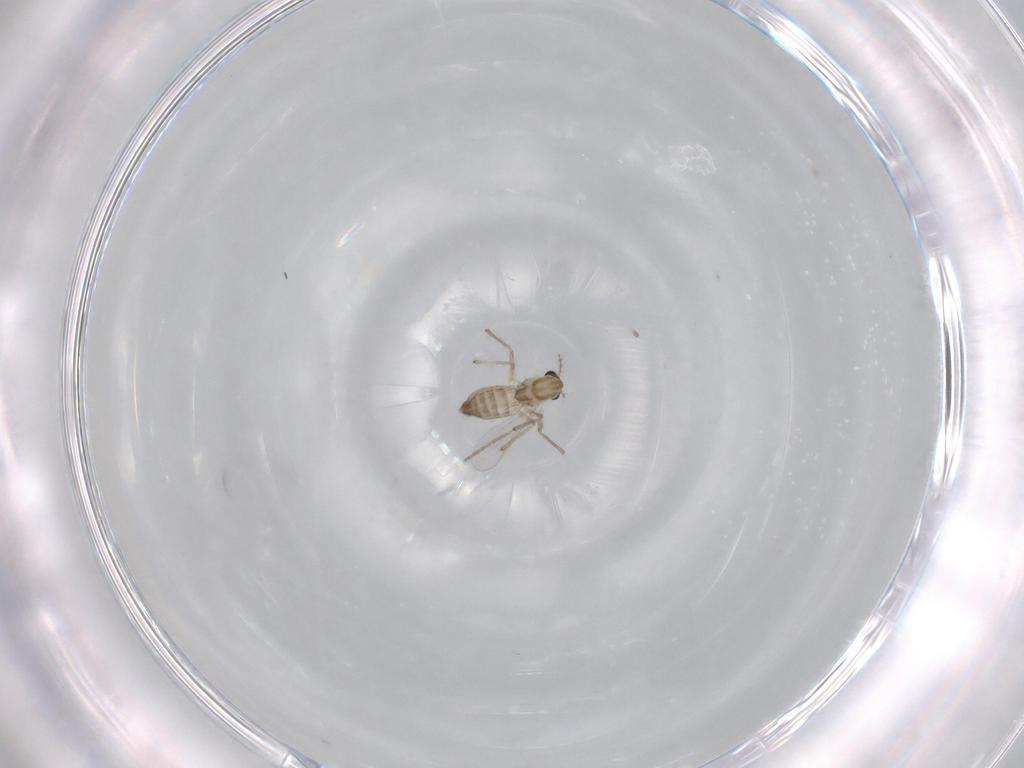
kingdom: Animalia
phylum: Arthropoda
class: Insecta
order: Diptera
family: Chironomidae
